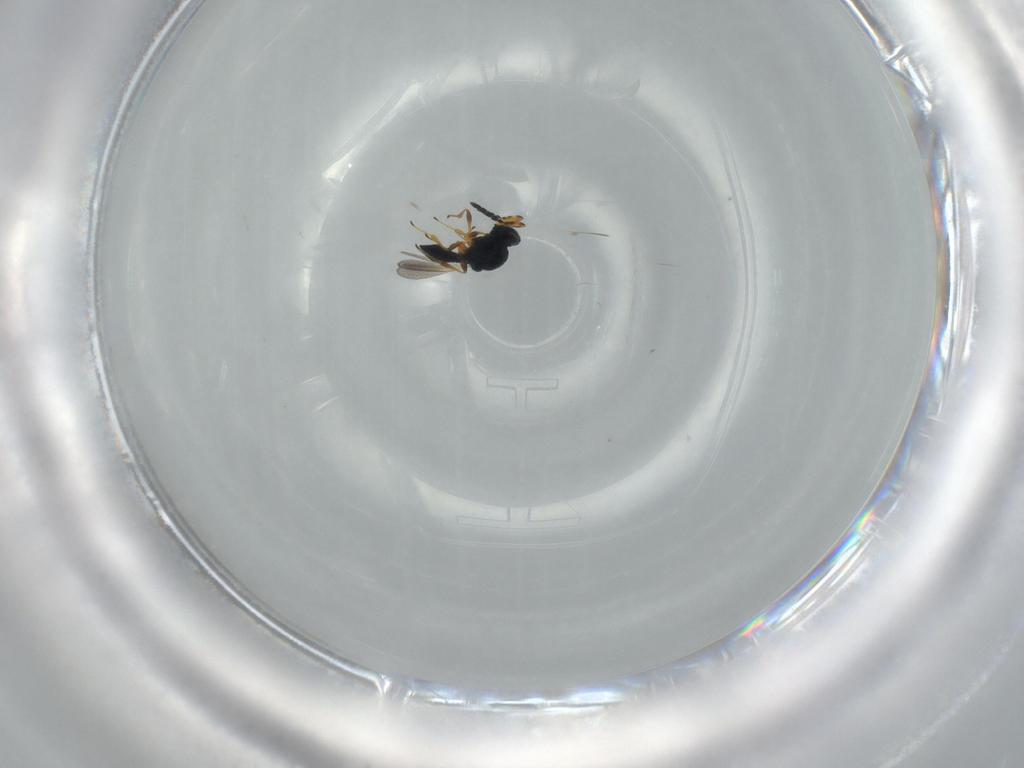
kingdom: Animalia
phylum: Arthropoda
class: Insecta
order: Hymenoptera
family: Platygastridae
